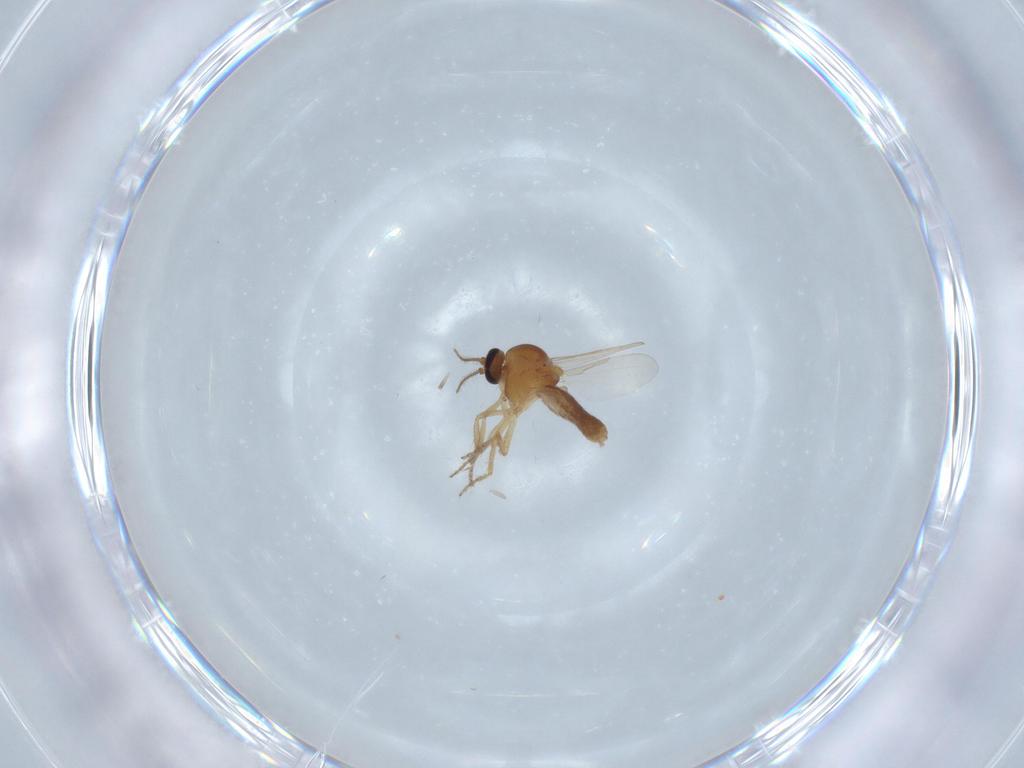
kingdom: Animalia
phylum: Arthropoda
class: Insecta
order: Diptera
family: Ceratopogonidae
